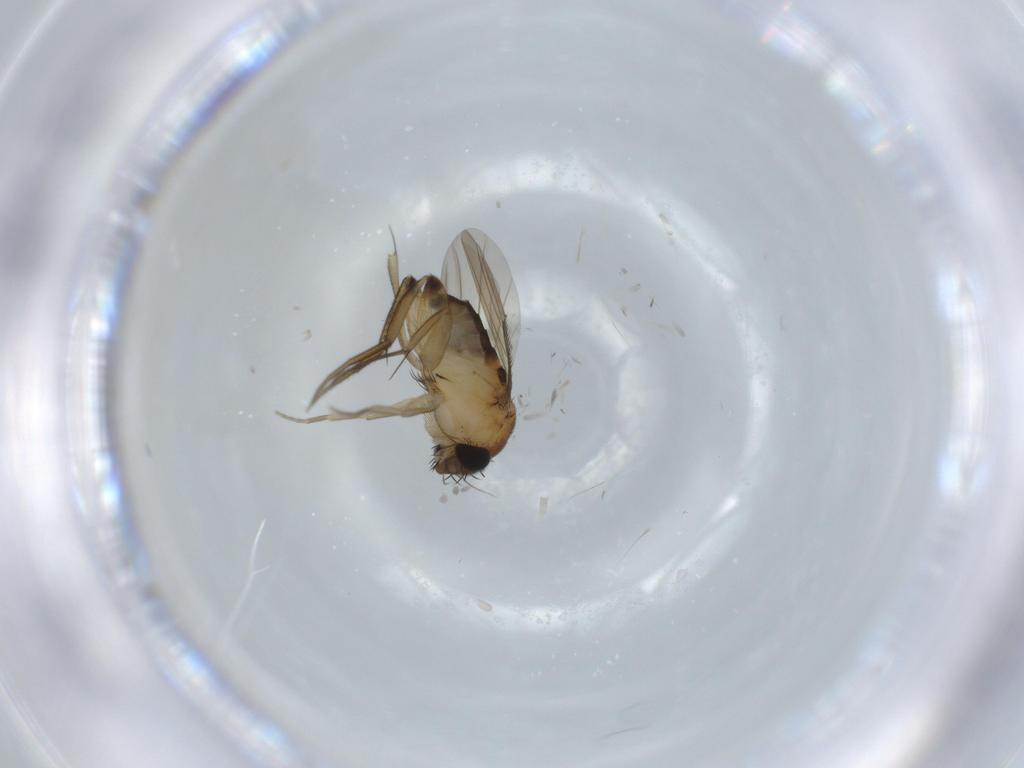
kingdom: Animalia
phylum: Arthropoda
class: Insecta
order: Diptera
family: Phoridae
